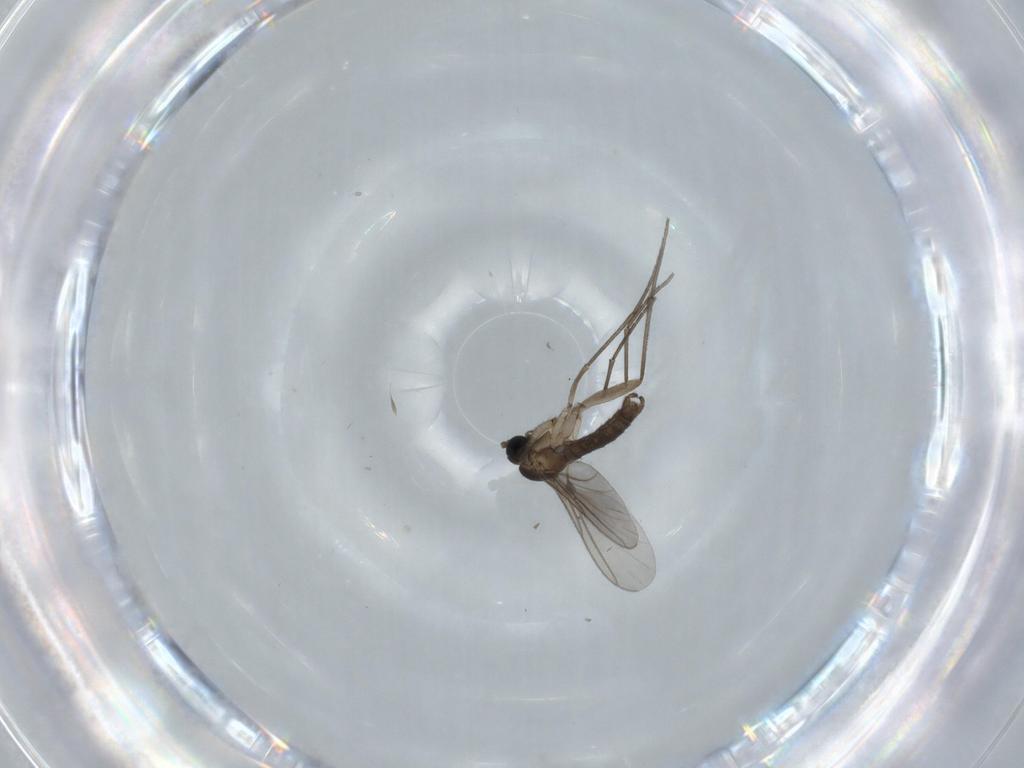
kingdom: Animalia
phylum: Arthropoda
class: Insecta
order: Diptera
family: Sciaridae
